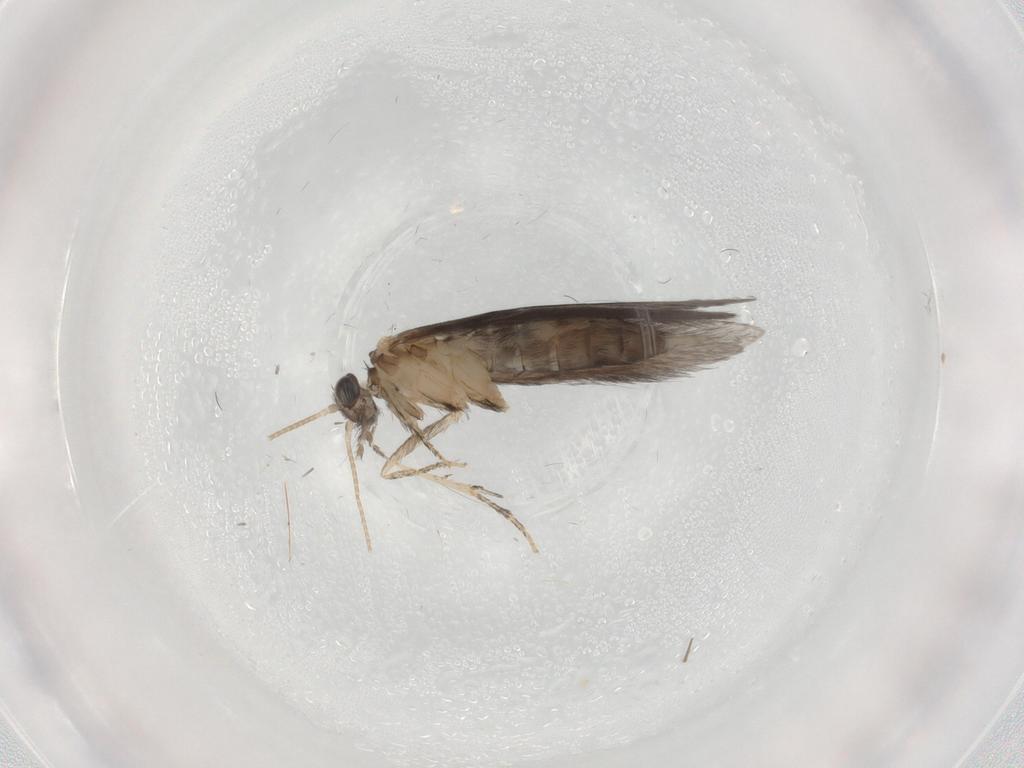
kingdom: Animalia
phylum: Arthropoda
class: Insecta
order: Trichoptera
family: Hydroptilidae
